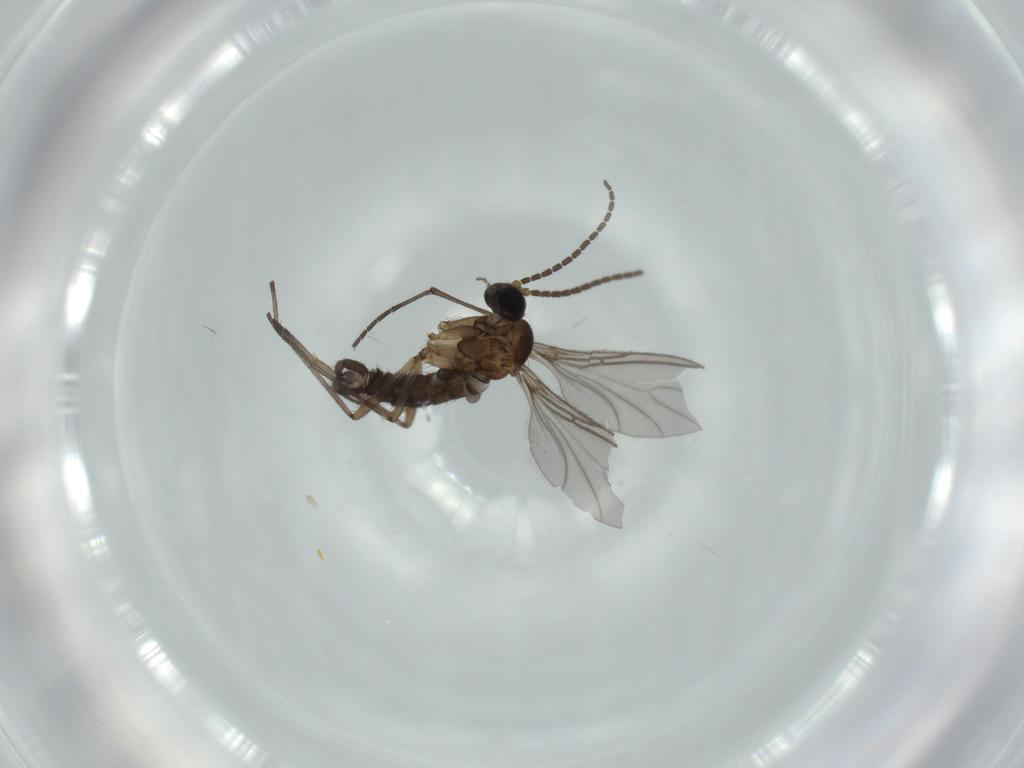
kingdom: Animalia
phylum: Arthropoda
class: Insecta
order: Diptera
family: Sciaridae
